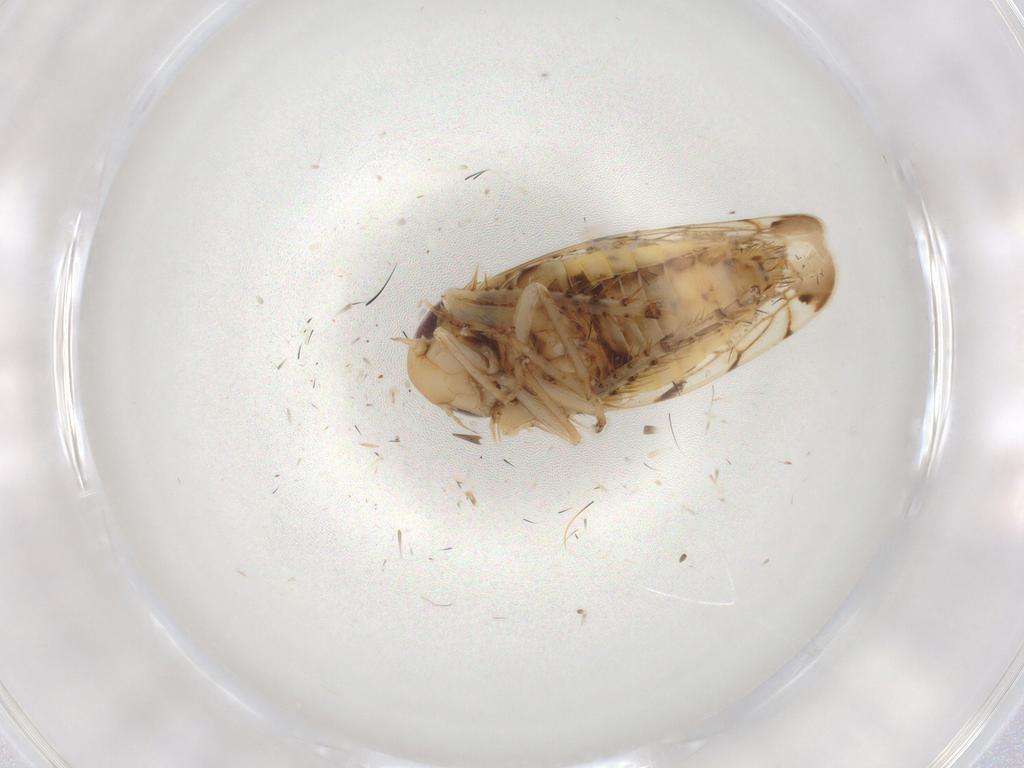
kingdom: Animalia
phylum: Arthropoda
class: Insecta
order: Hemiptera
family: Cicadellidae
